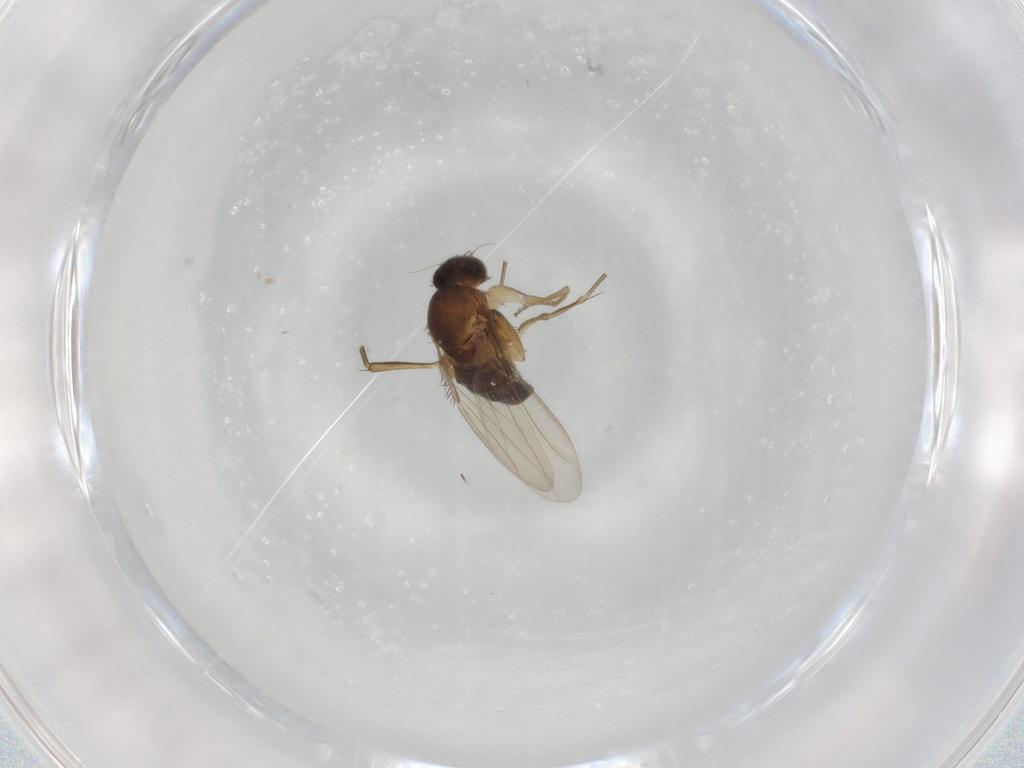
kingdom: Animalia
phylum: Arthropoda
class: Insecta
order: Diptera
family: Phoridae
